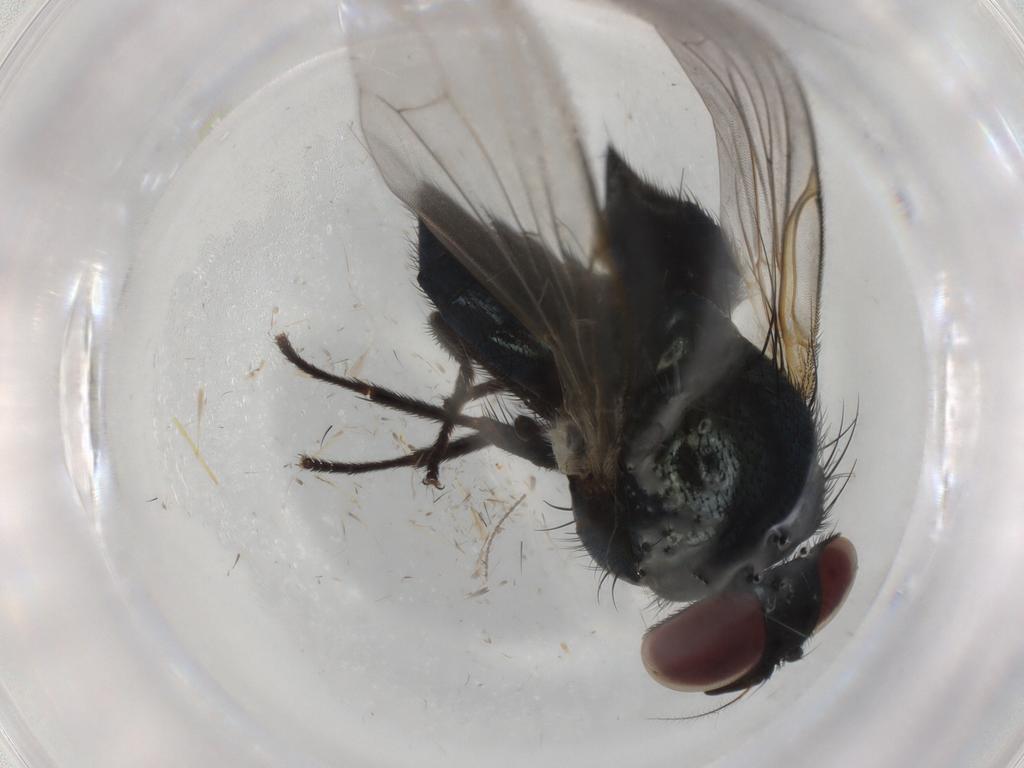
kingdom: Animalia
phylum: Arthropoda
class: Insecta
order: Diptera
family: Lonchaeidae
